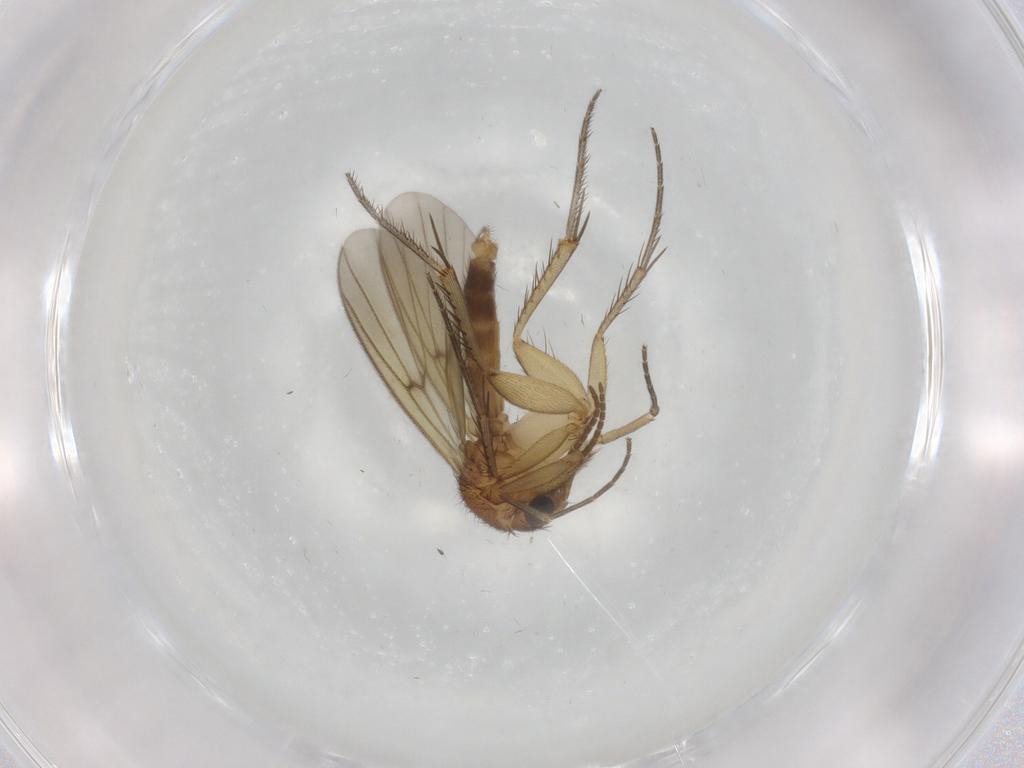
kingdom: Animalia
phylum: Arthropoda
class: Insecta
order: Diptera
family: Mycetophilidae
